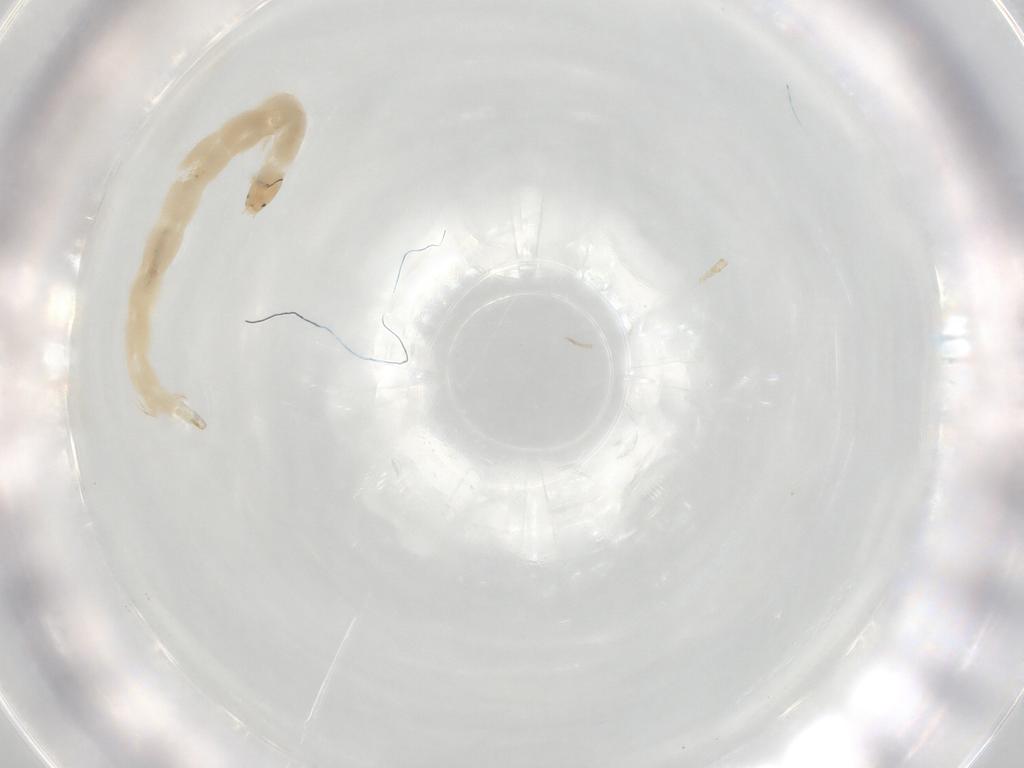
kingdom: Animalia
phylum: Arthropoda
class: Insecta
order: Diptera
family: Chironomidae
